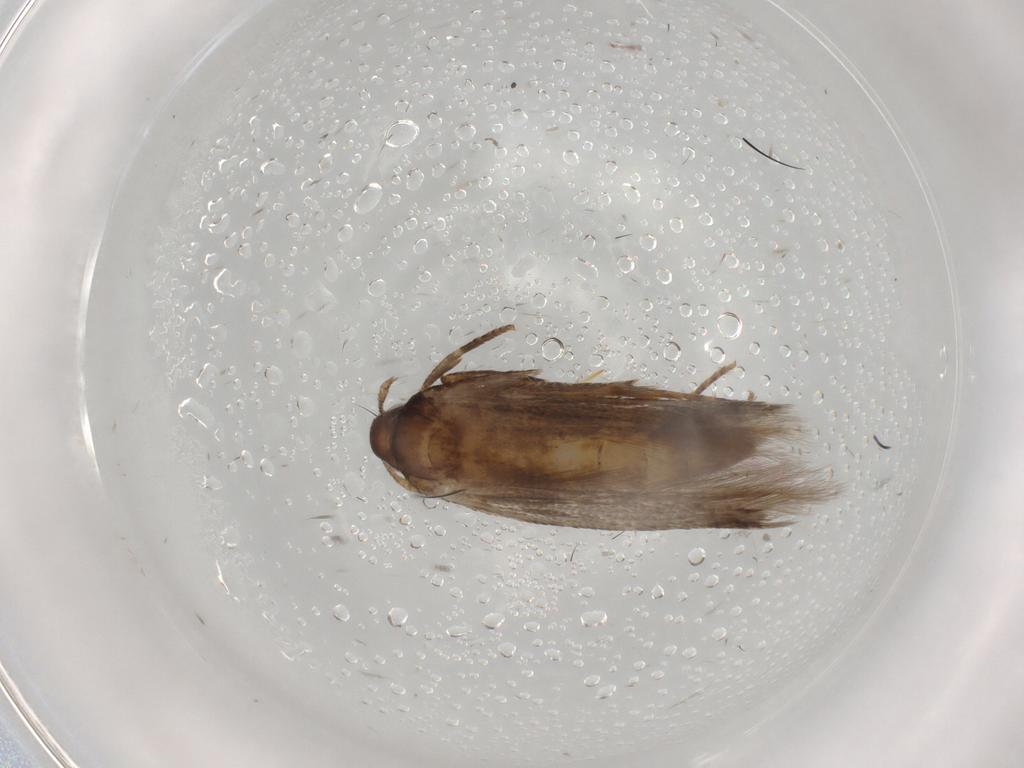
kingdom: Animalia
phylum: Arthropoda
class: Insecta
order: Lepidoptera
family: Cosmopterigidae
